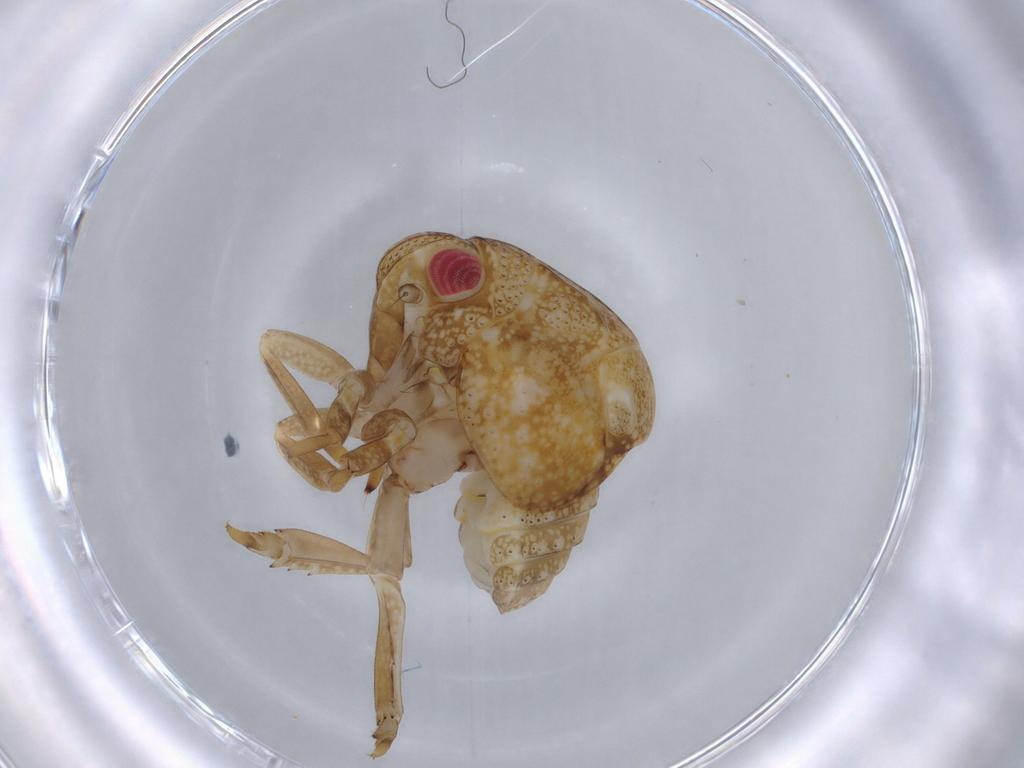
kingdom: Animalia
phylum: Arthropoda
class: Insecta
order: Hemiptera
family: Acanaloniidae
